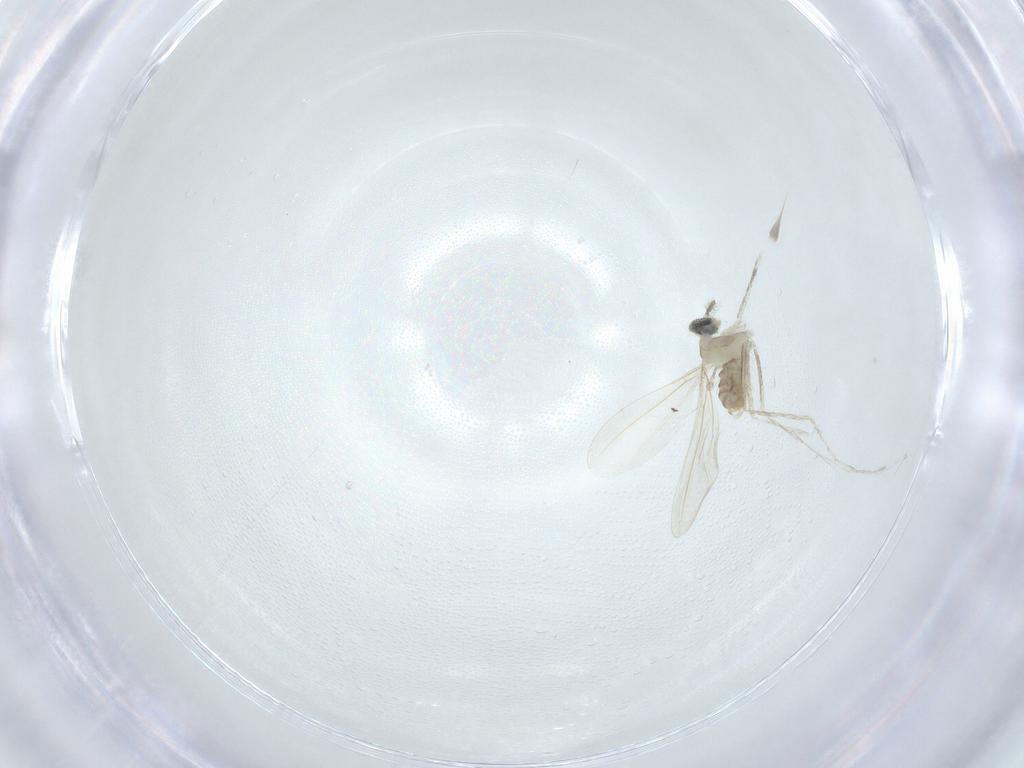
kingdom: Animalia
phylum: Arthropoda
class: Insecta
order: Diptera
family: Cecidomyiidae
